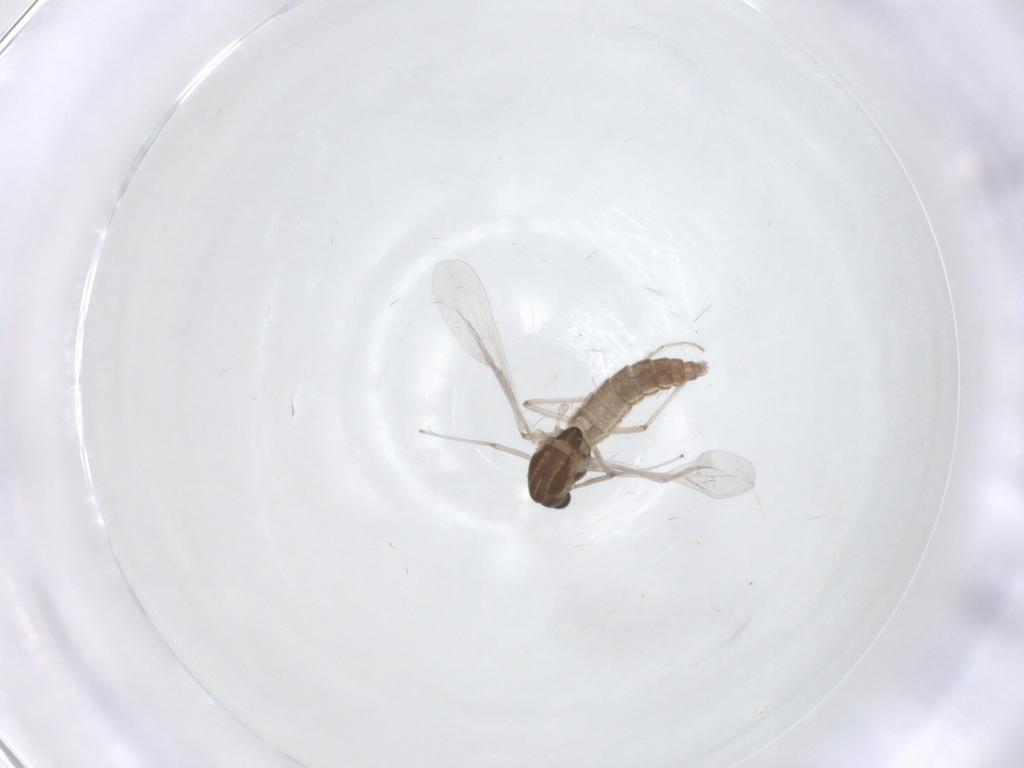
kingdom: Animalia
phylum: Arthropoda
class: Insecta
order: Diptera
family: Chironomidae
